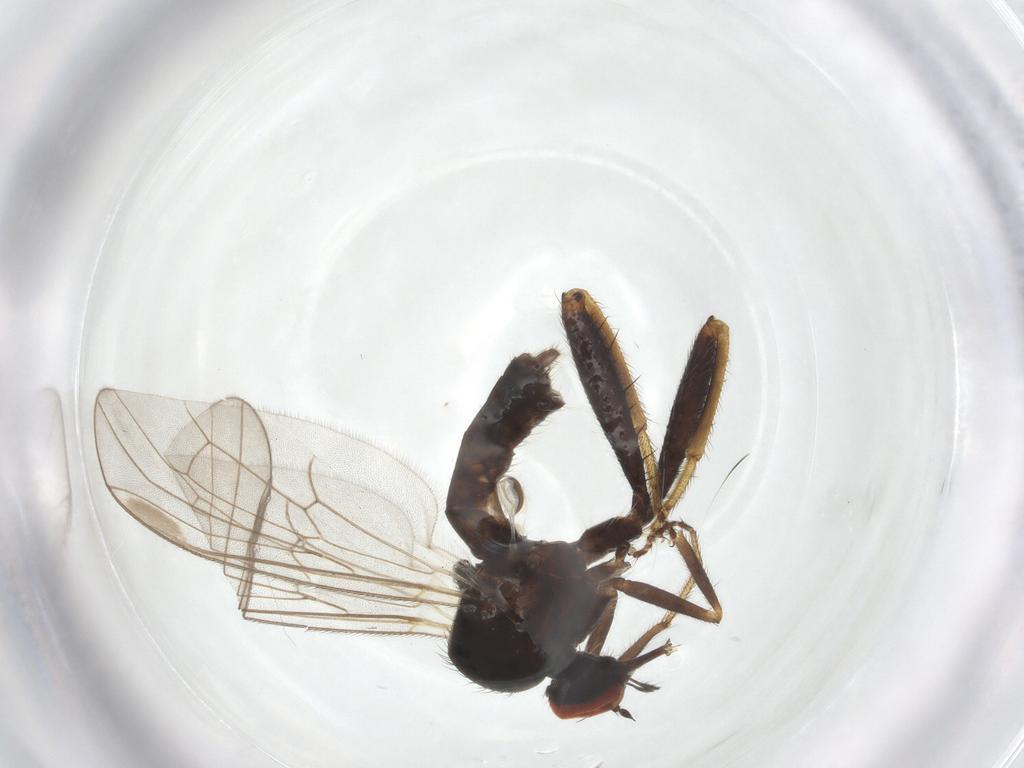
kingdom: Animalia
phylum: Arthropoda
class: Insecta
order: Diptera
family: Phoridae
